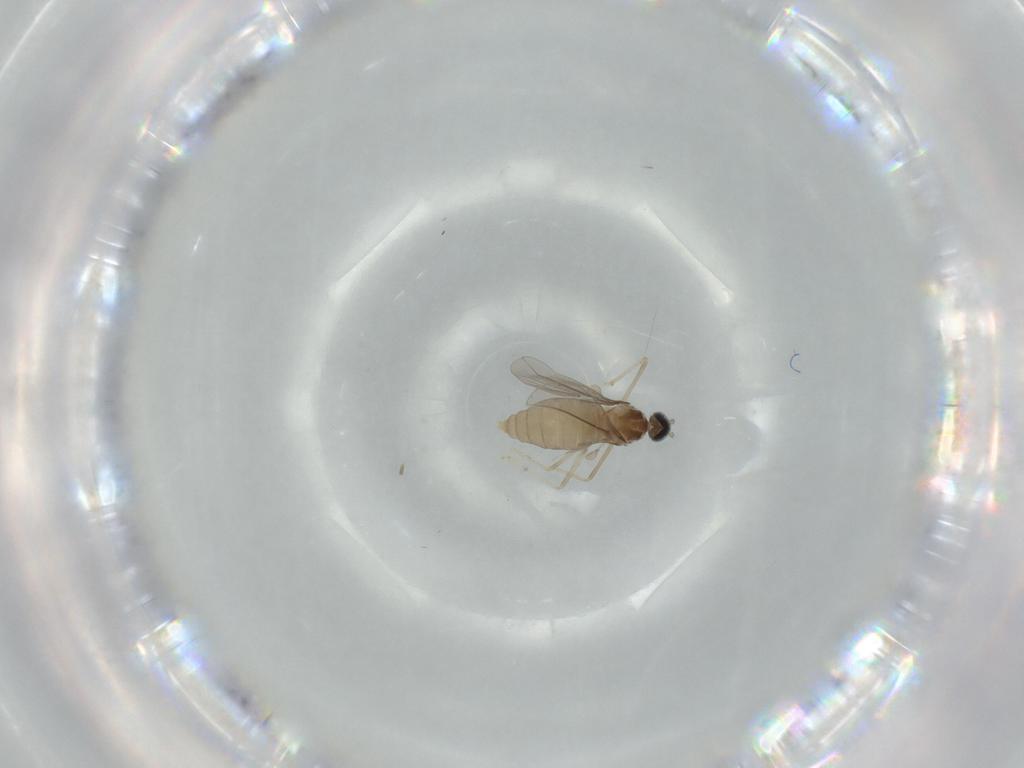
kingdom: Animalia
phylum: Arthropoda
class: Insecta
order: Diptera
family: Cecidomyiidae
